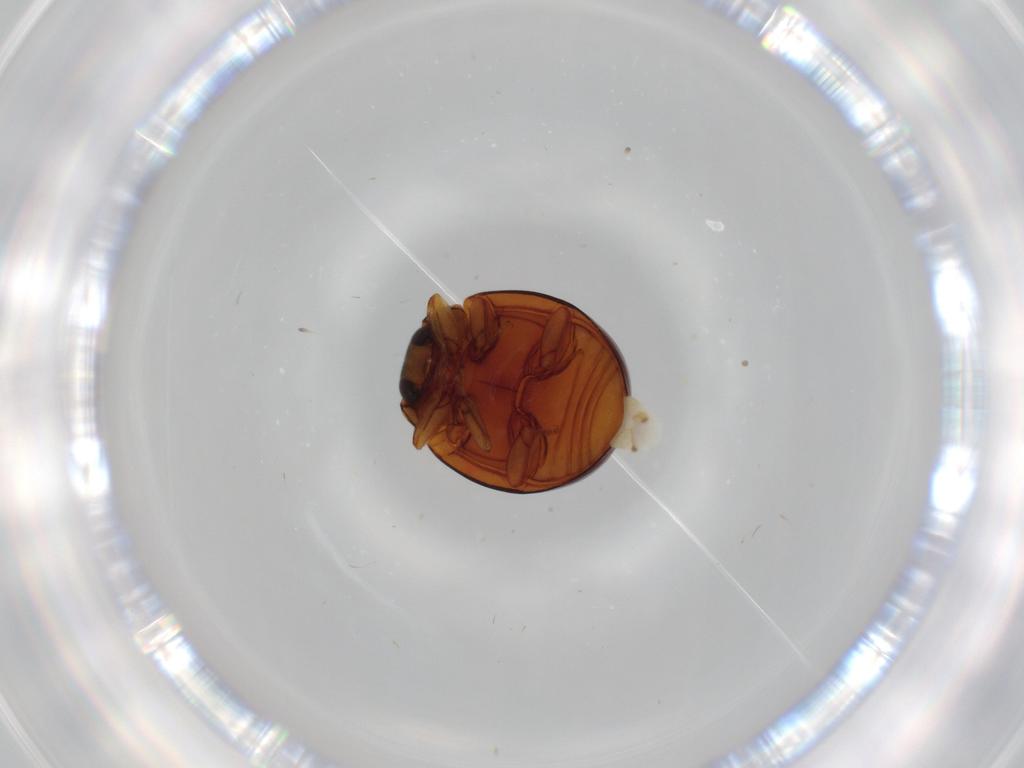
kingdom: Animalia
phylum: Arthropoda
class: Insecta
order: Coleoptera
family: Coccinellidae
